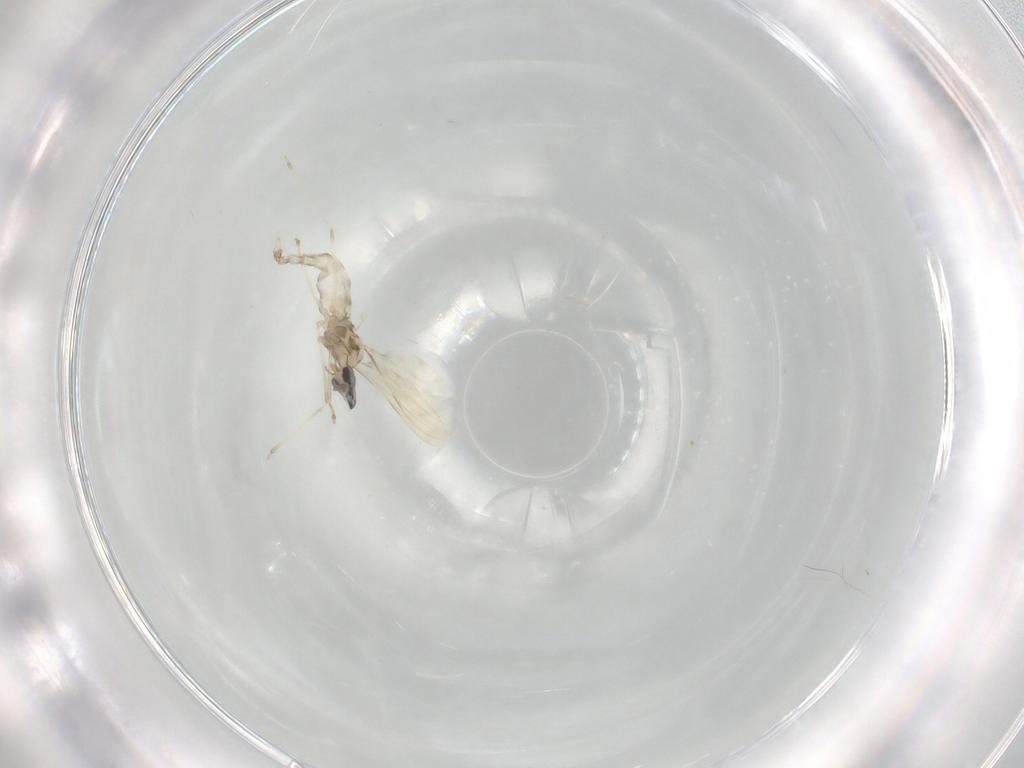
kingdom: Animalia
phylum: Arthropoda
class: Insecta
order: Diptera
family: Cecidomyiidae
